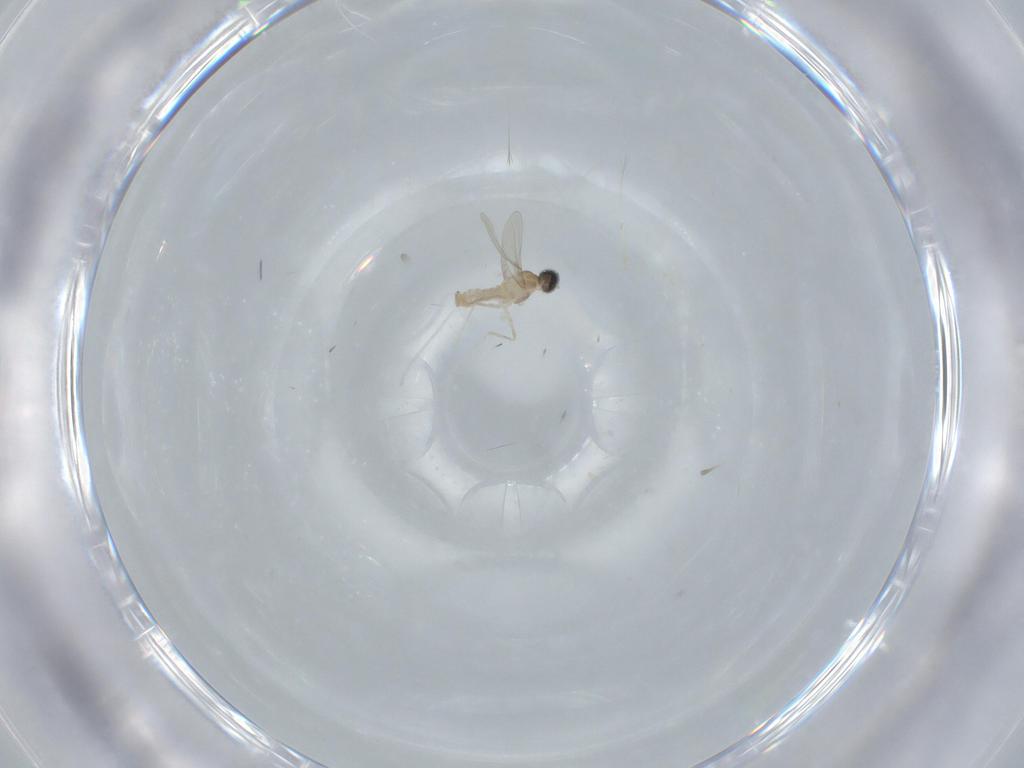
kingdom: Animalia
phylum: Arthropoda
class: Insecta
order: Diptera
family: Cecidomyiidae
